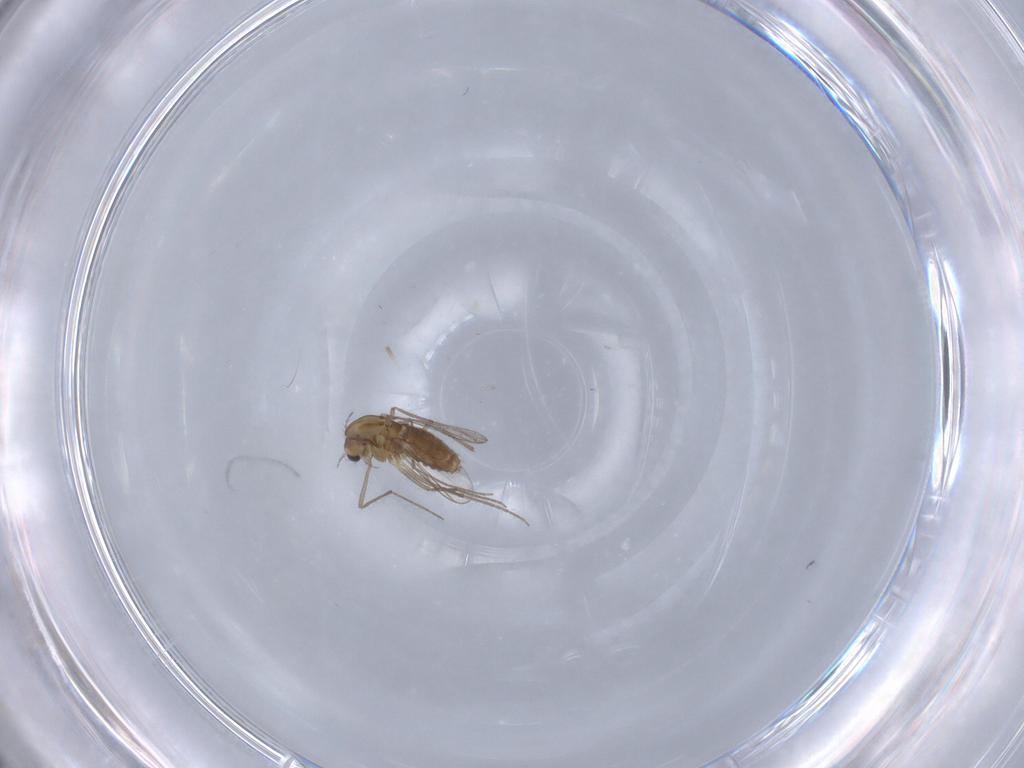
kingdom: Animalia
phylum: Arthropoda
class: Insecta
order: Diptera
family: Chironomidae
